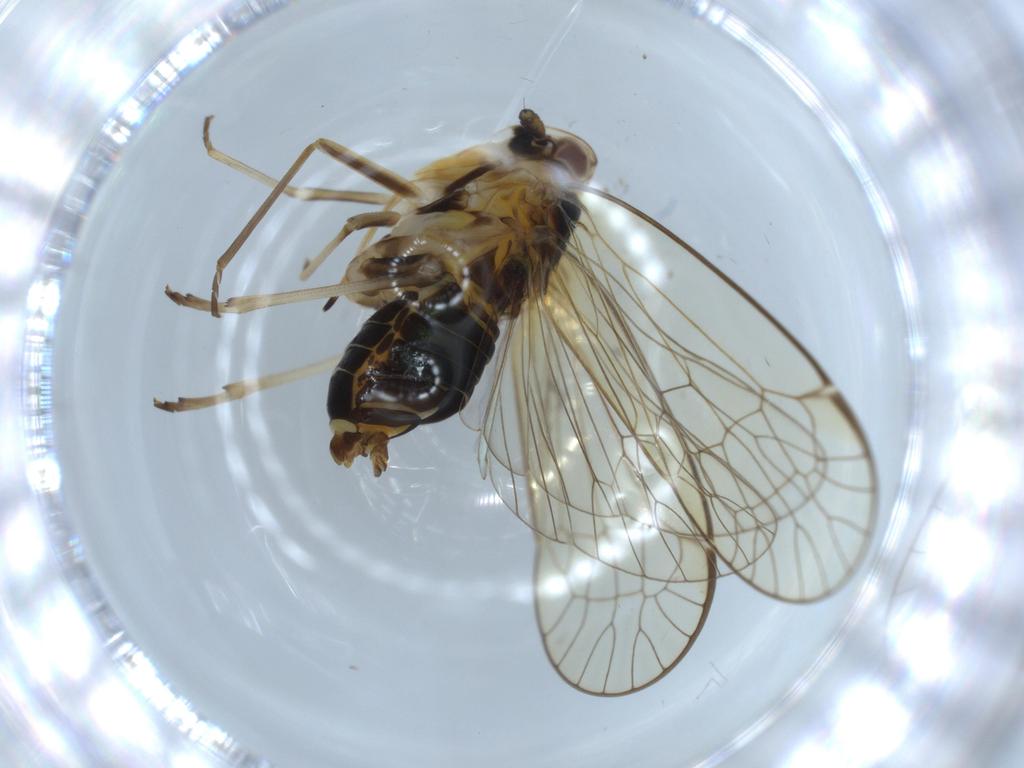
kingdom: Animalia
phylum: Arthropoda
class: Insecta
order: Hemiptera
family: Kinnaridae
